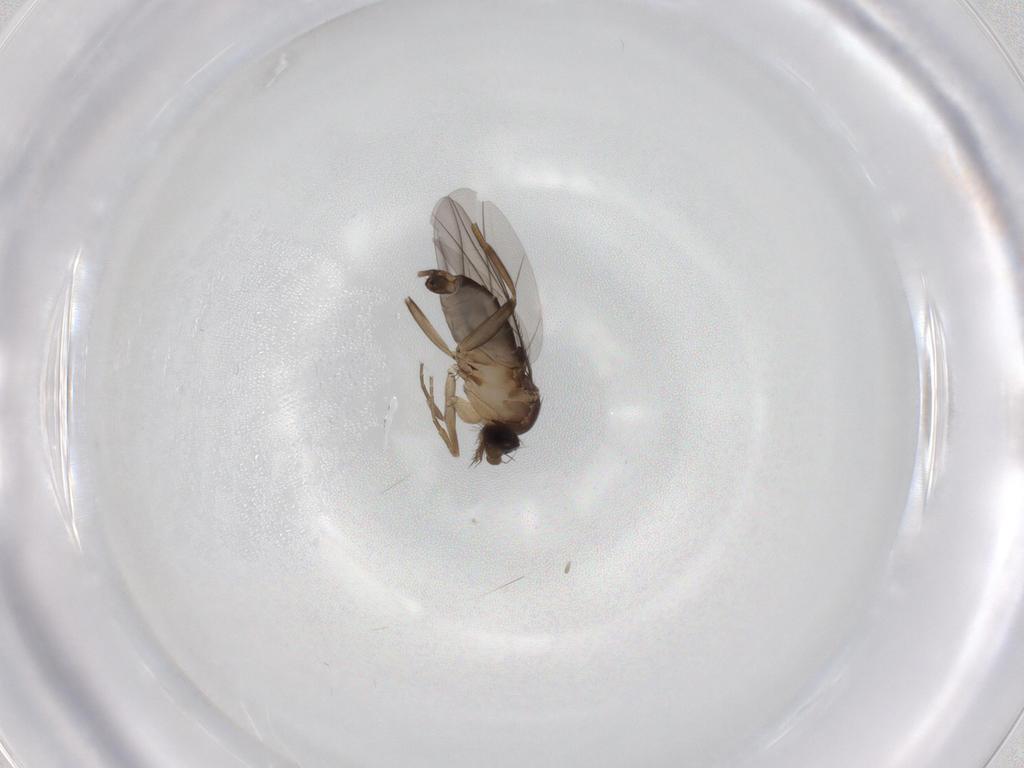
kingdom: Animalia
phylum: Arthropoda
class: Insecta
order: Diptera
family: Phoridae
